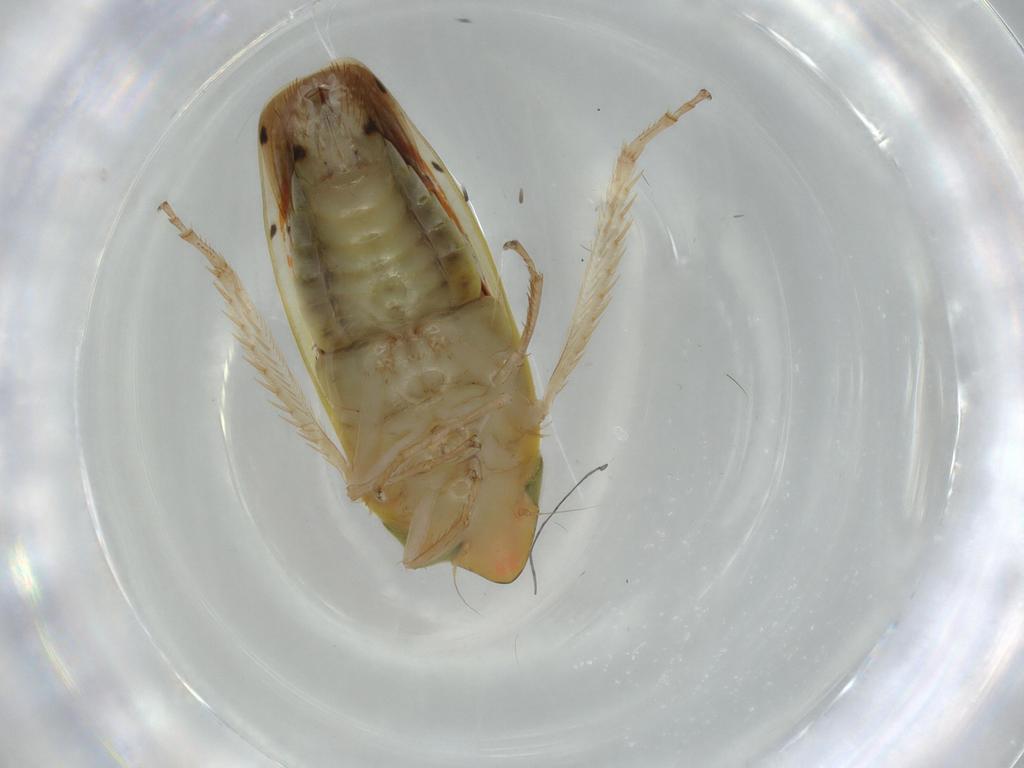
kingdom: Animalia
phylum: Arthropoda
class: Insecta
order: Hemiptera
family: Cicadellidae
